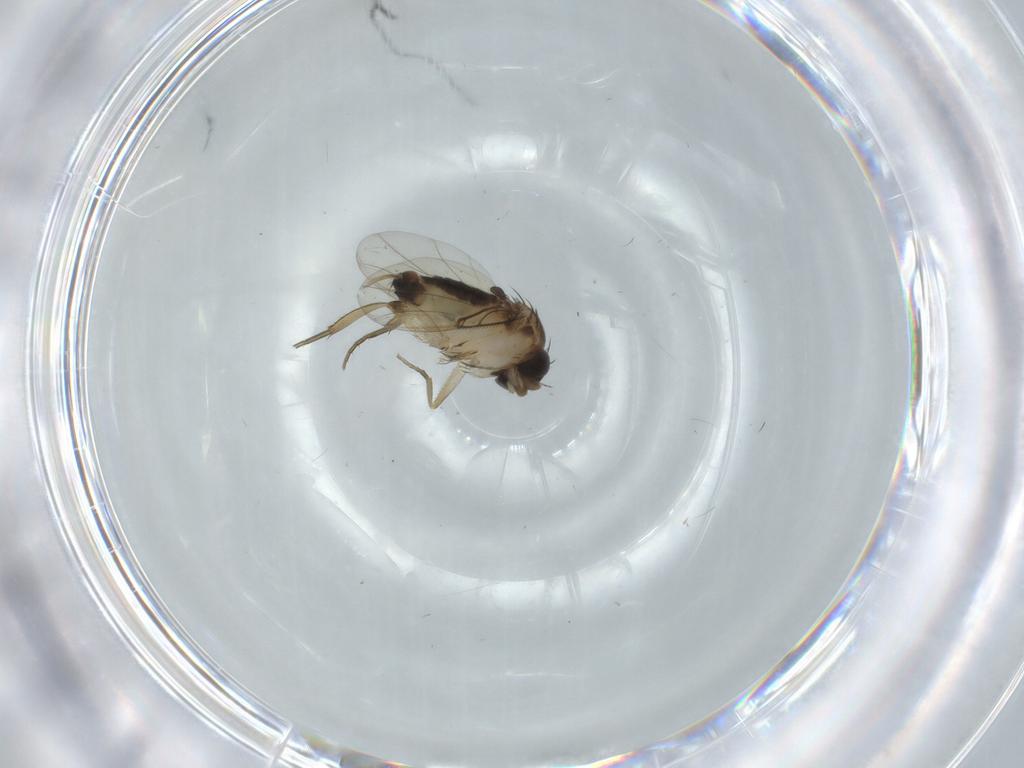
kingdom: Animalia
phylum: Arthropoda
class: Insecta
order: Diptera
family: Phoridae
